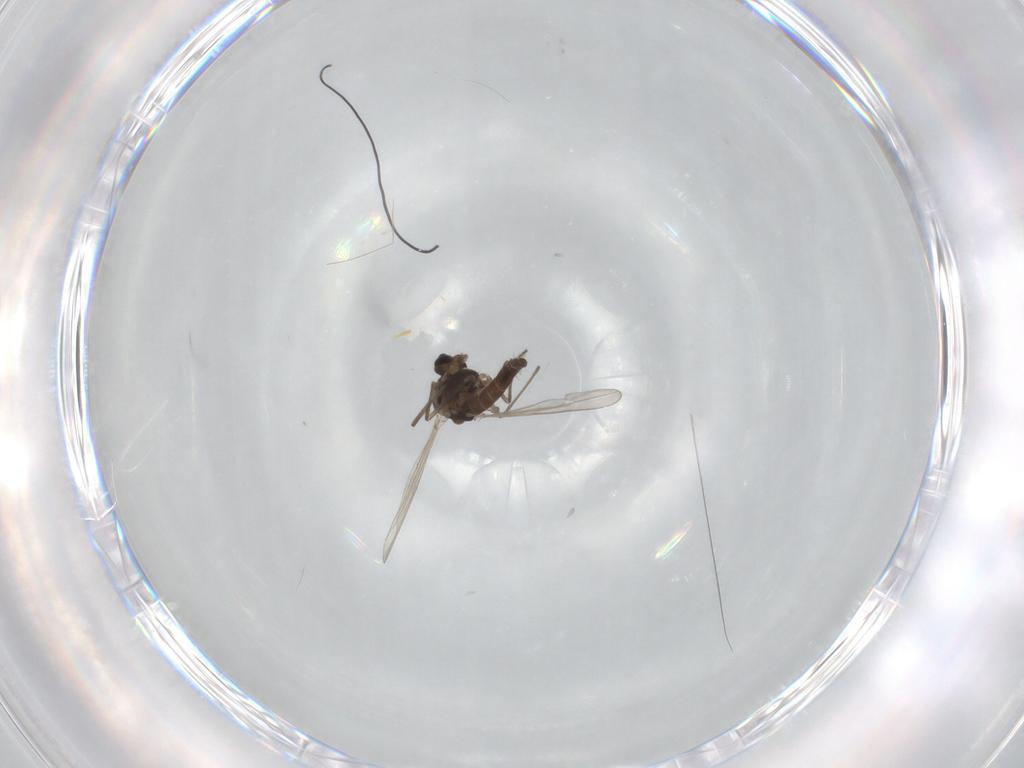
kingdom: Animalia
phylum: Arthropoda
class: Insecta
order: Diptera
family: Chironomidae
